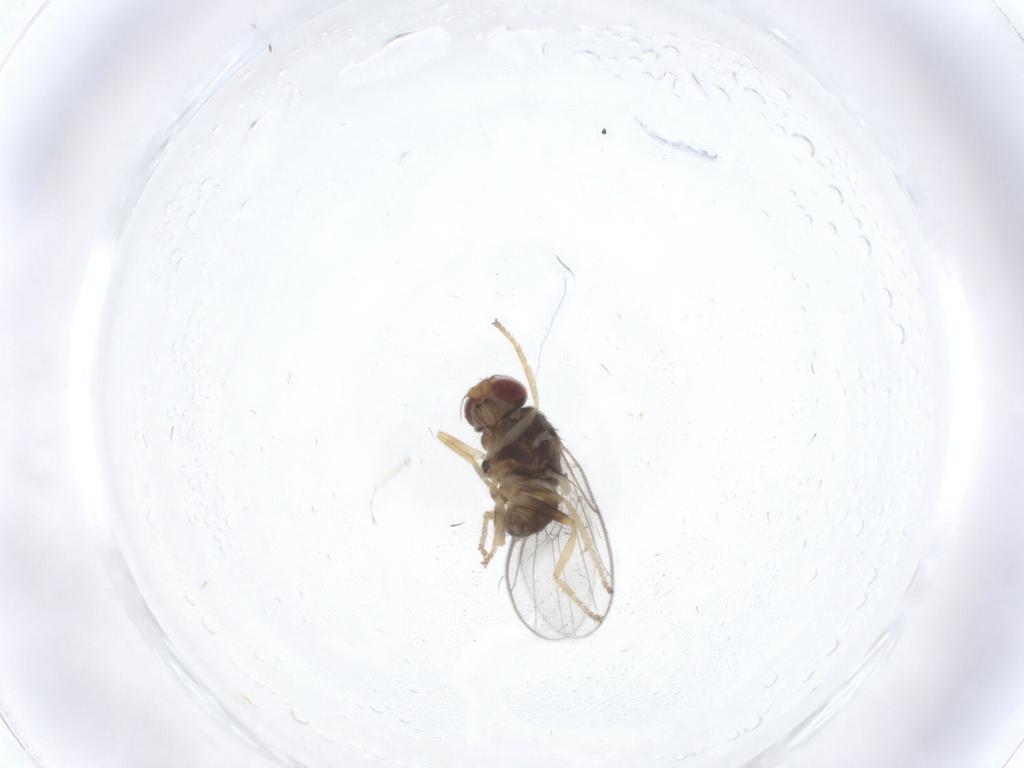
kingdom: Animalia
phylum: Arthropoda
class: Insecta
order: Diptera
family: Chloropidae
